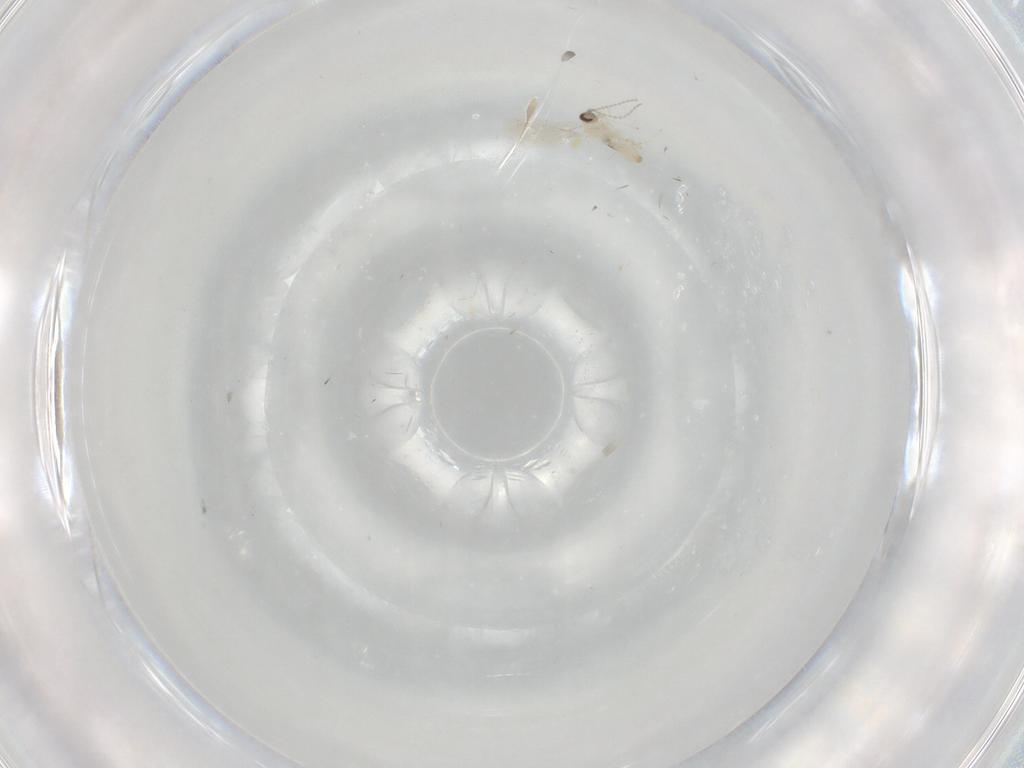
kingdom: Animalia
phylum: Arthropoda
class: Insecta
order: Diptera
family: Cecidomyiidae
